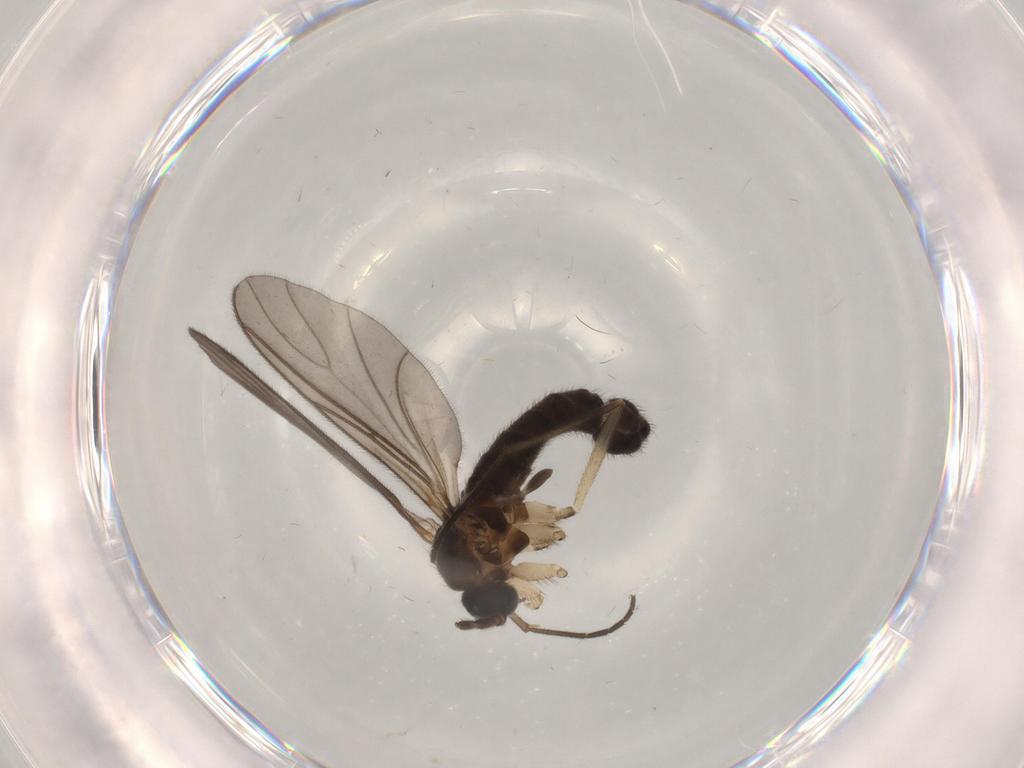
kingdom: Animalia
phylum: Arthropoda
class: Insecta
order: Diptera
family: Sciaridae
